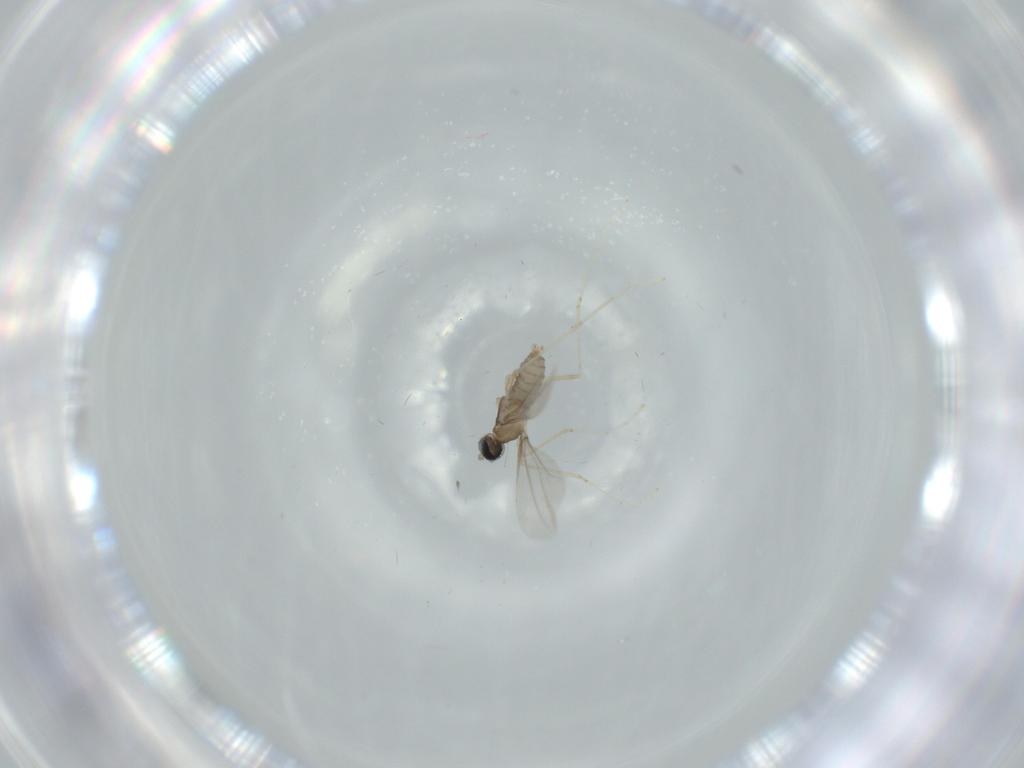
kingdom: Animalia
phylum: Arthropoda
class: Insecta
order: Diptera
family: Cecidomyiidae
